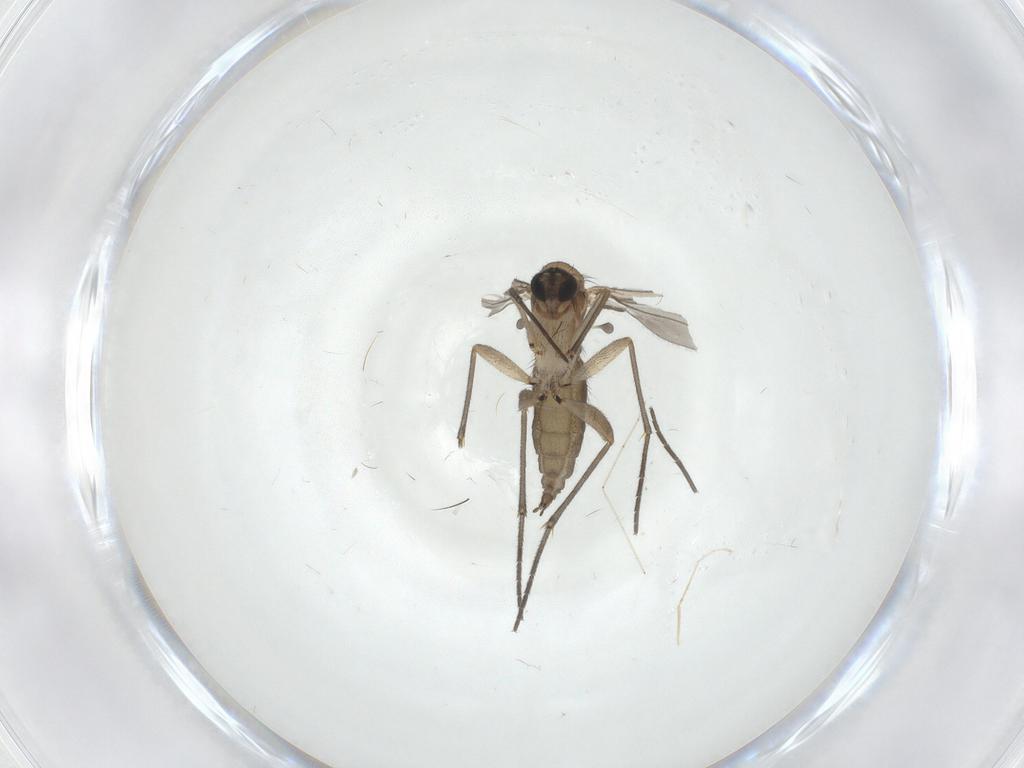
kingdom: Animalia
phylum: Arthropoda
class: Insecta
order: Diptera
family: Sciaridae
